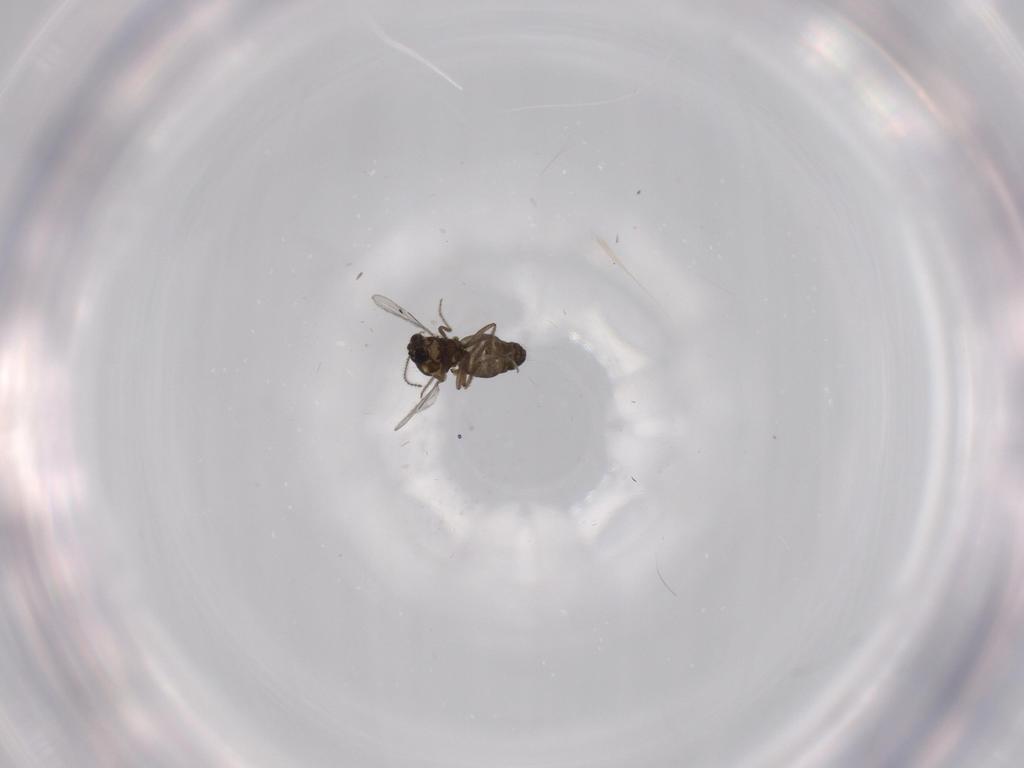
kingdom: Animalia
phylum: Arthropoda
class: Insecta
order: Diptera
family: Ceratopogonidae
